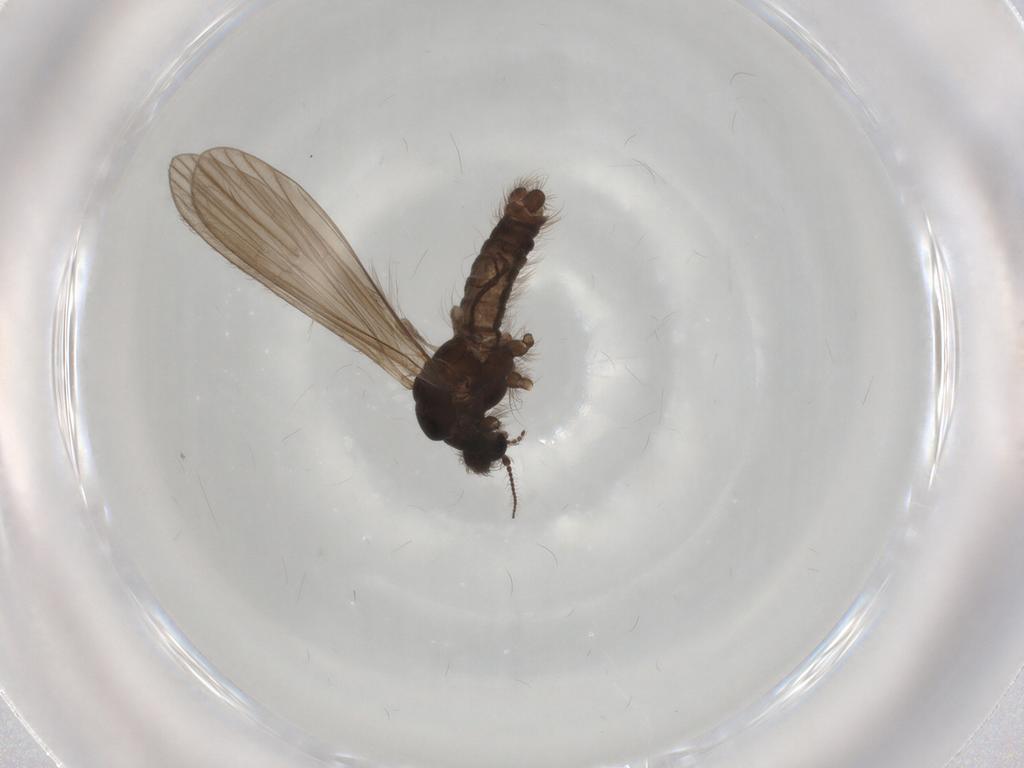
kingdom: Animalia
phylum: Arthropoda
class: Insecta
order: Diptera
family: Limoniidae
